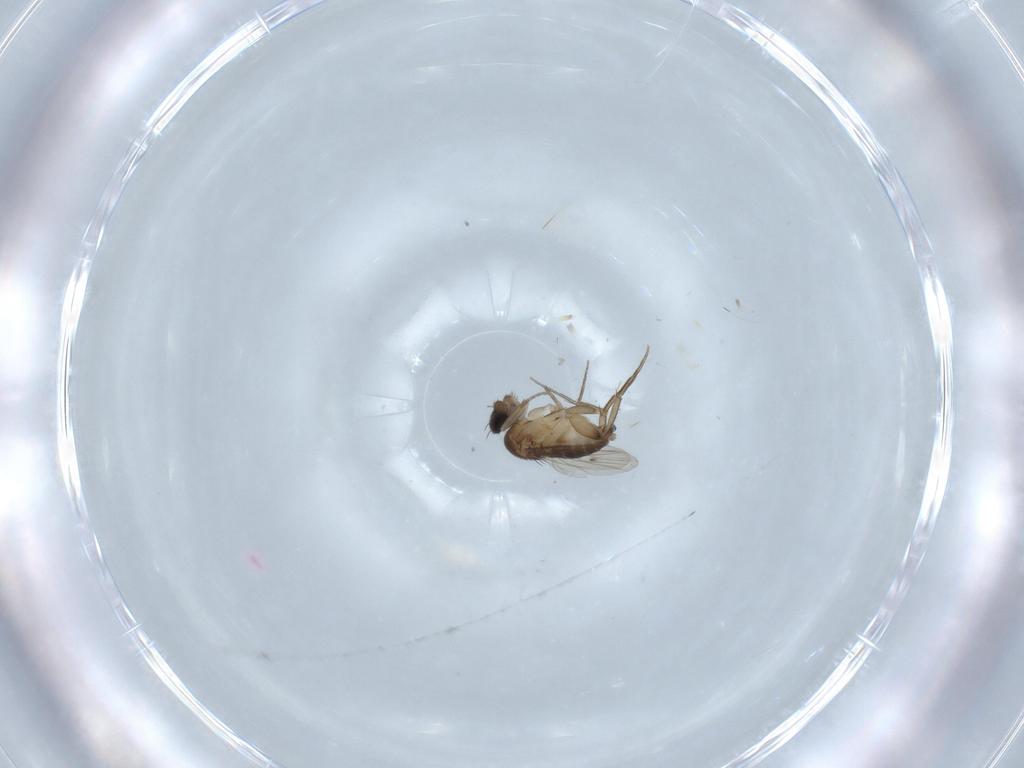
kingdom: Animalia
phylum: Arthropoda
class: Insecta
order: Diptera
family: Phoridae
